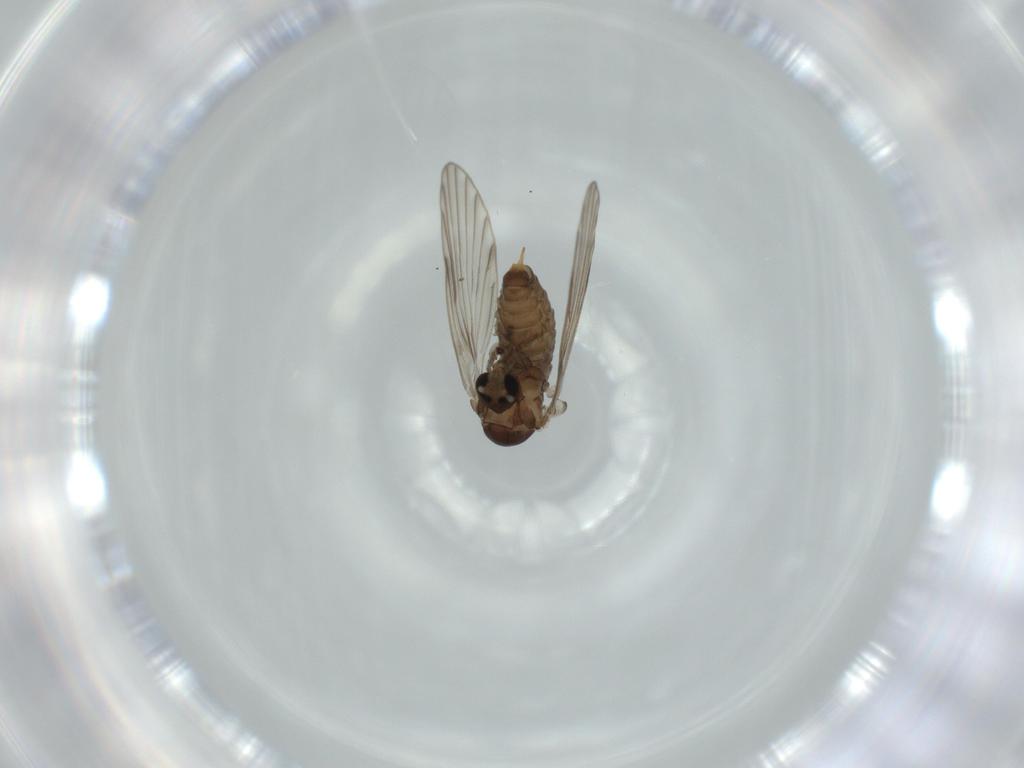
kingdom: Animalia
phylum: Arthropoda
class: Insecta
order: Diptera
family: Psychodidae
